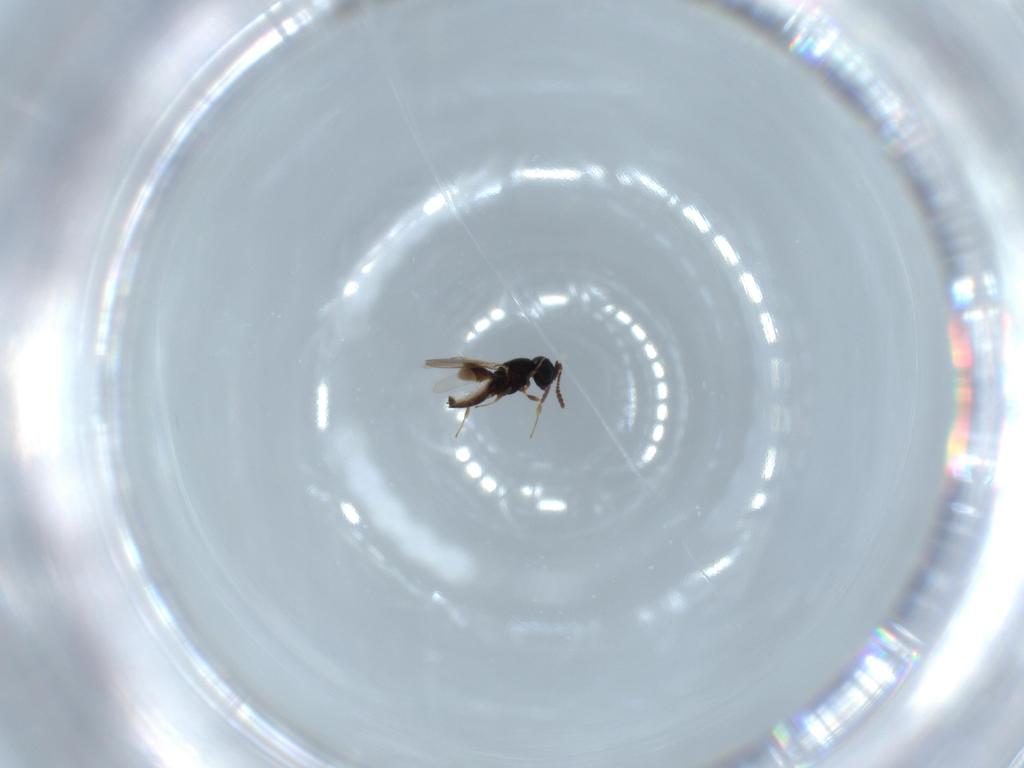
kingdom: Animalia
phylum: Arthropoda
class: Insecta
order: Hymenoptera
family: Scelionidae
